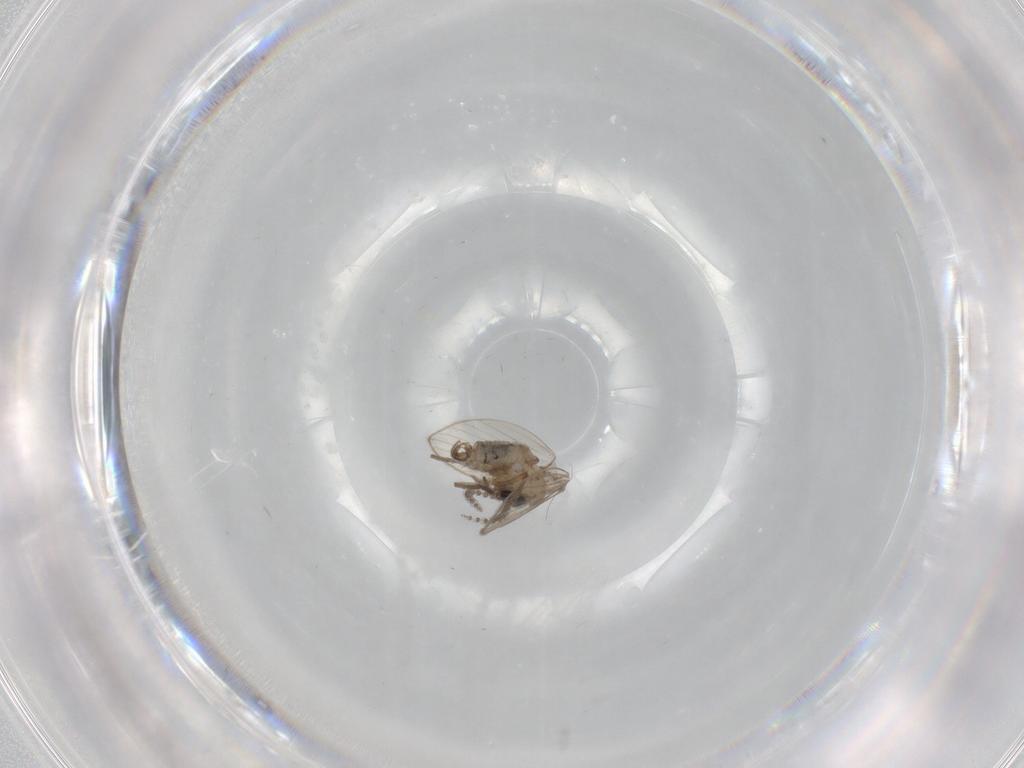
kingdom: Animalia
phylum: Arthropoda
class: Insecta
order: Diptera
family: Psychodidae
